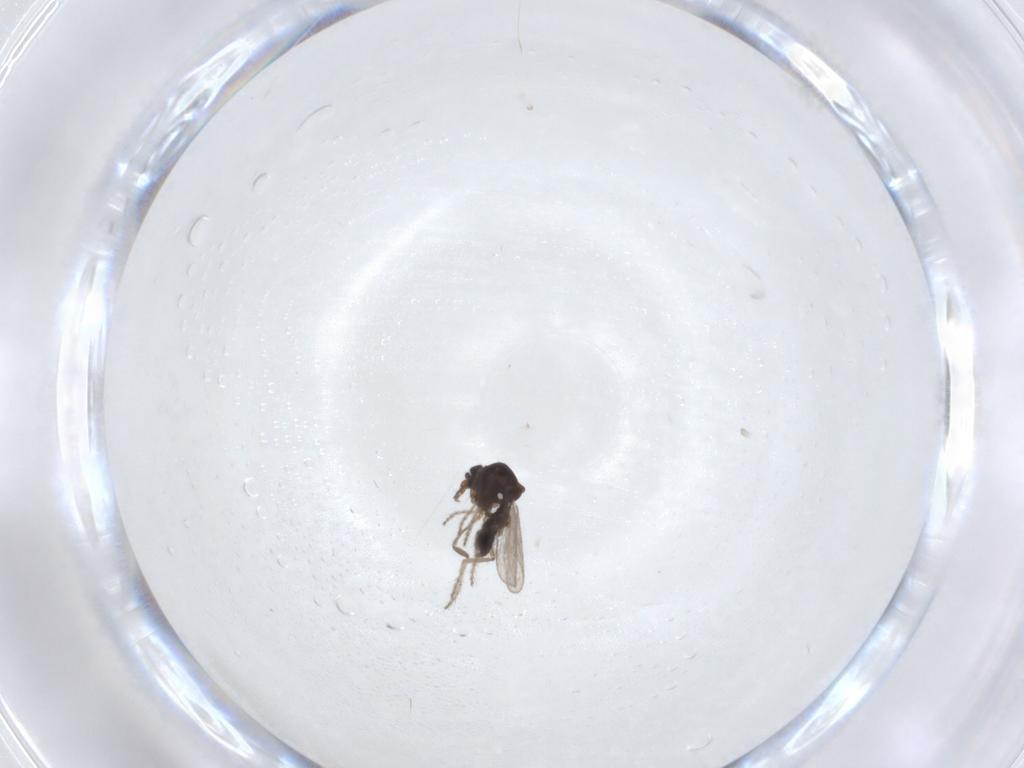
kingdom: Animalia
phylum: Arthropoda
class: Insecta
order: Diptera
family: Ceratopogonidae
